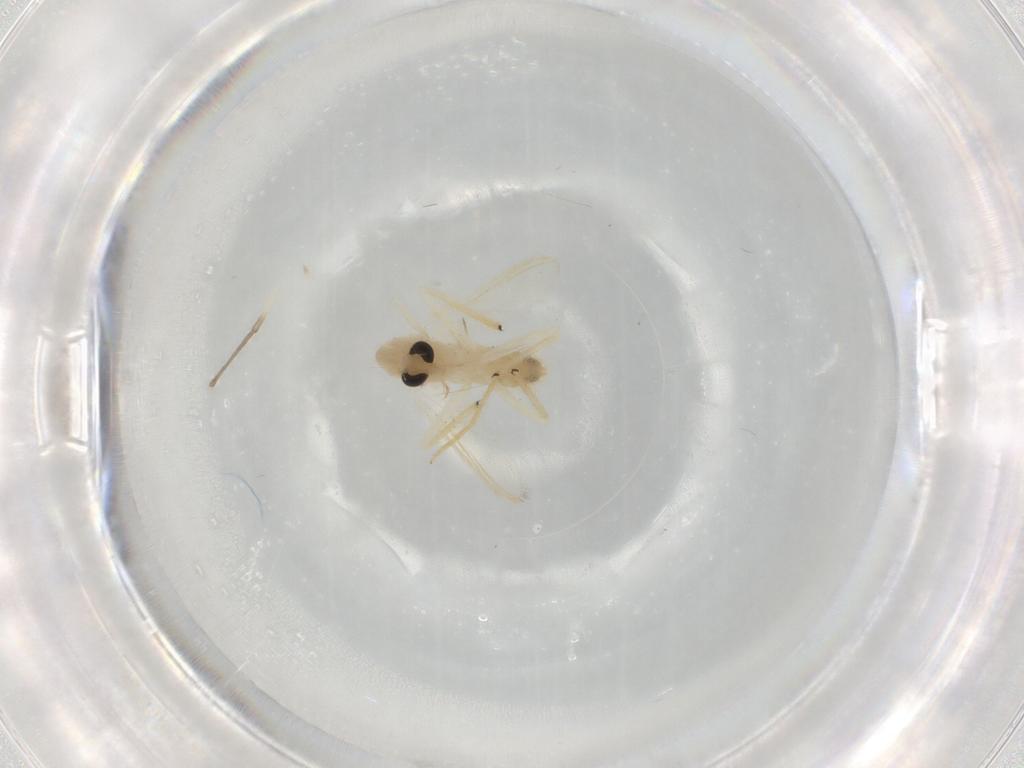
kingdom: Animalia
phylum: Arthropoda
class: Insecta
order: Diptera
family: Chironomidae
